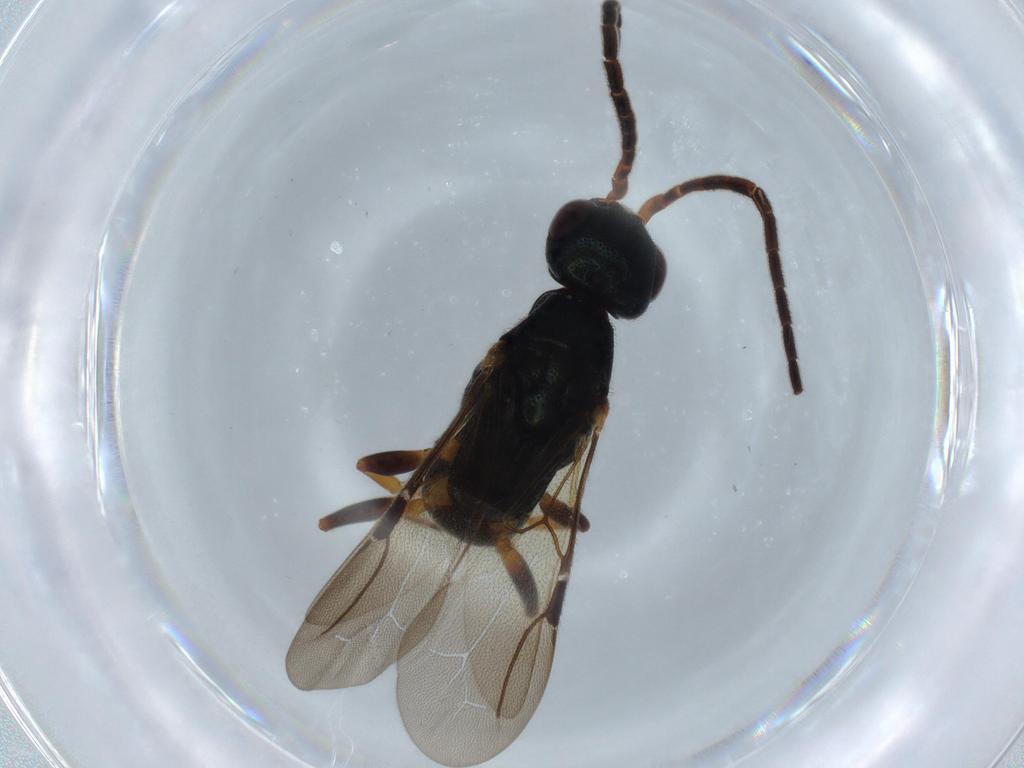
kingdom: Animalia
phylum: Arthropoda
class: Insecta
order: Hymenoptera
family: Bethylidae
